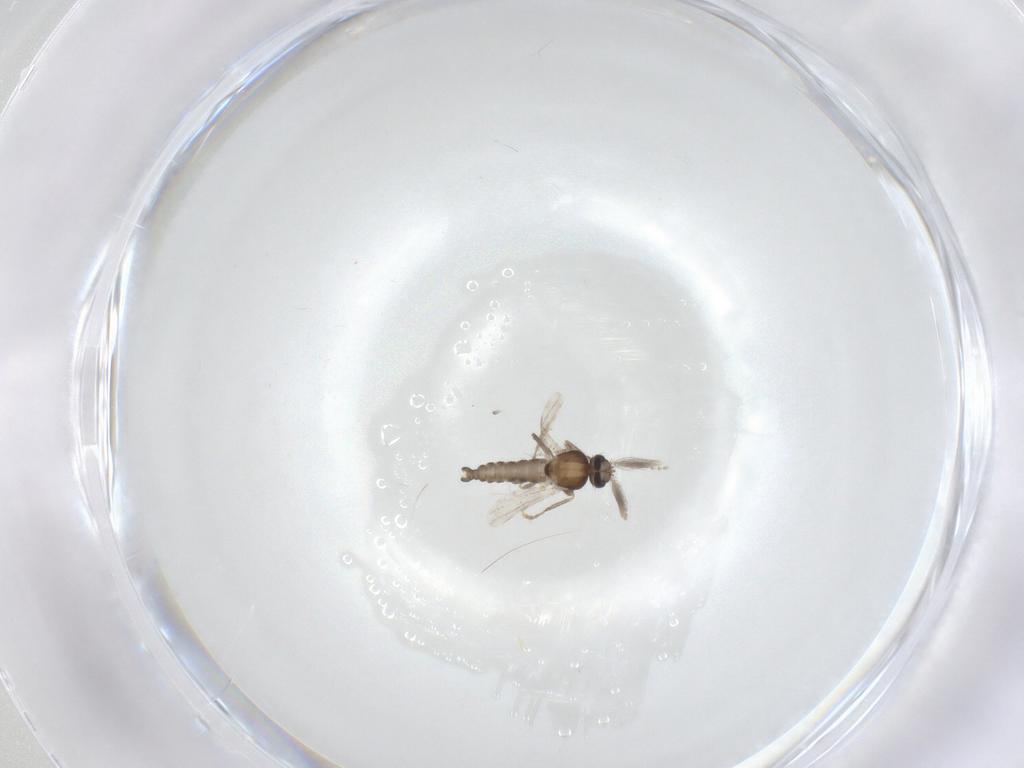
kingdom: Animalia
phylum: Arthropoda
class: Insecta
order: Diptera
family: Ceratopogonidae
